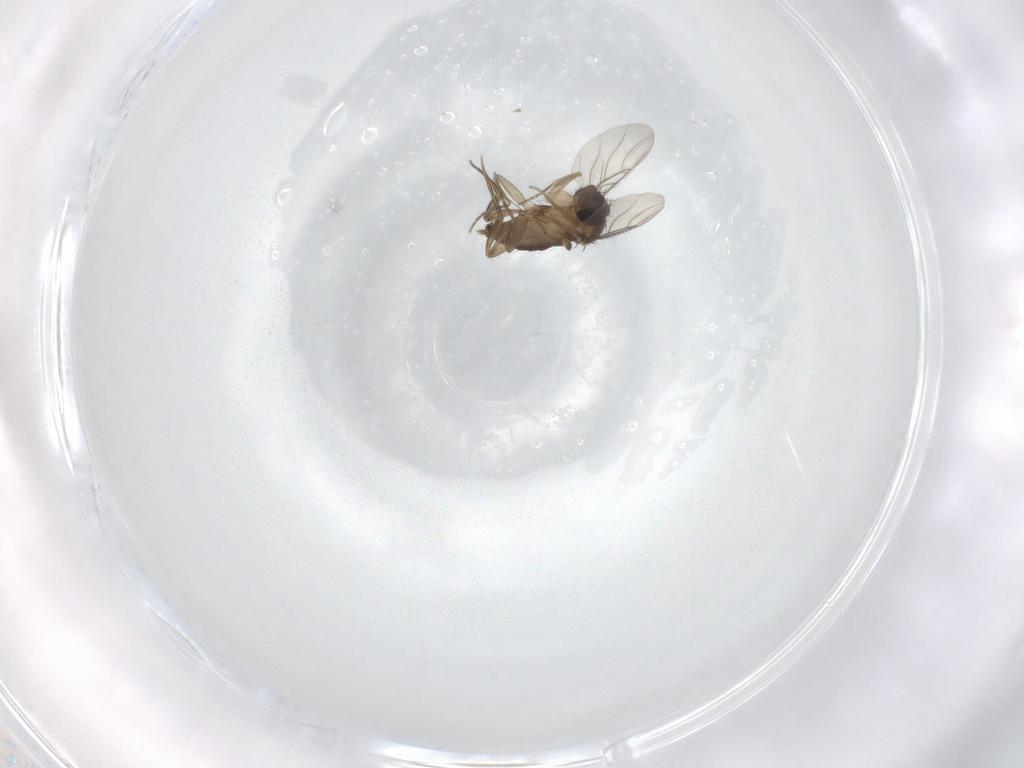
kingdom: Animalia
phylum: Arthropoda
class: Insecta
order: Diptera
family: Phoridae
